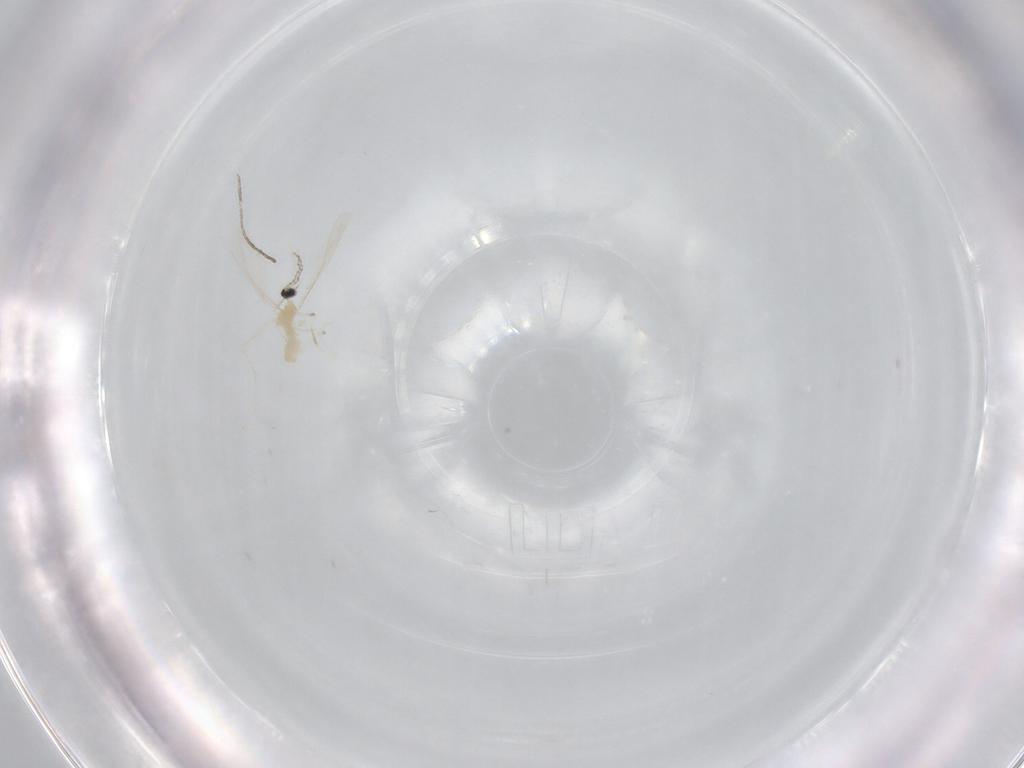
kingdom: Animalia
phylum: Arthropoda
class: Insecta
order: Diptera
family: Cecidomyiidae
